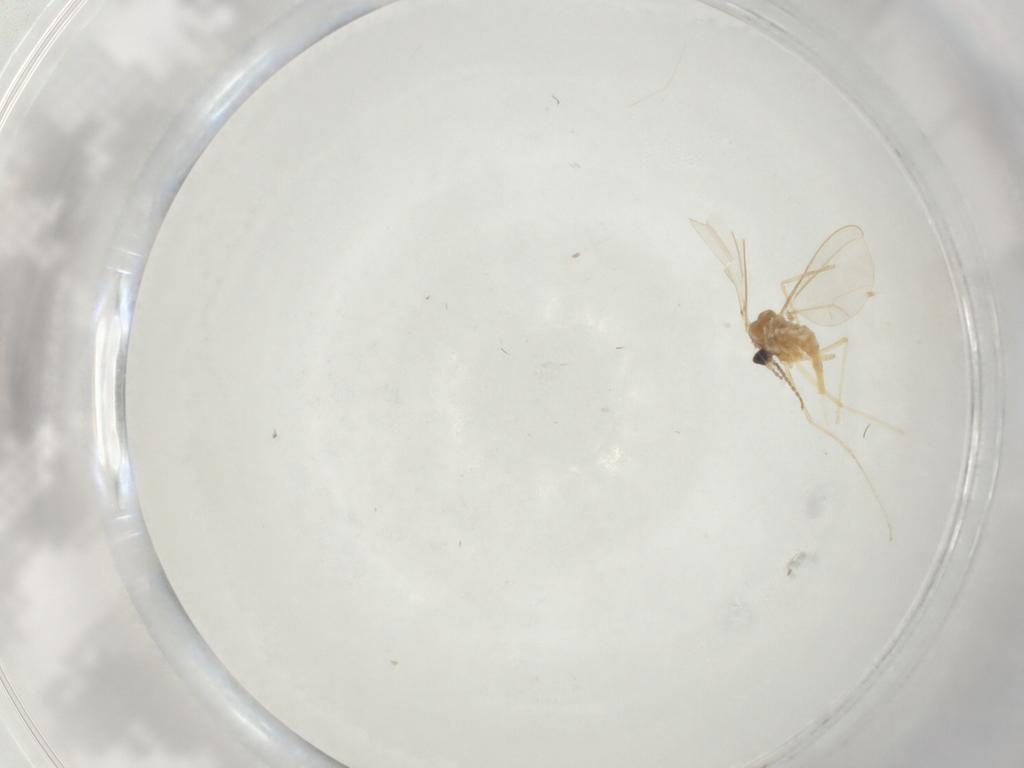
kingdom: Animalia
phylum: Arthropoda
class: Insecta
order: Diptera
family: Cecidomyiidae
